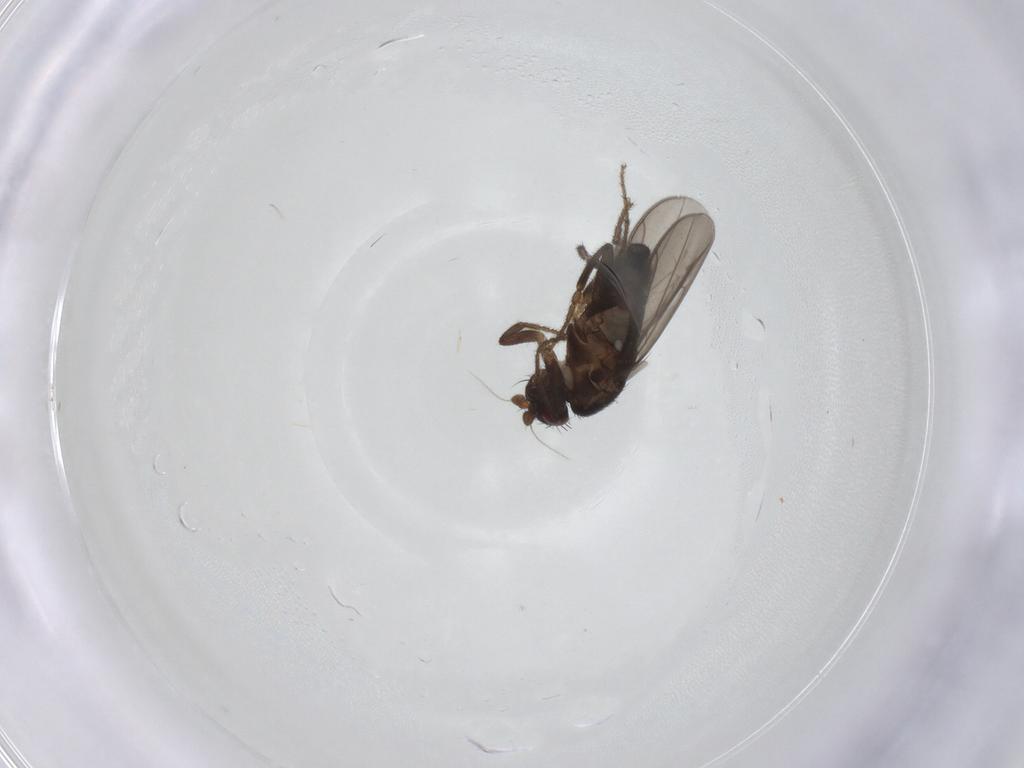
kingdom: Animalia
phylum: Arthropoda
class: Insecta
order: Diptera
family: Sphaeroceridae
